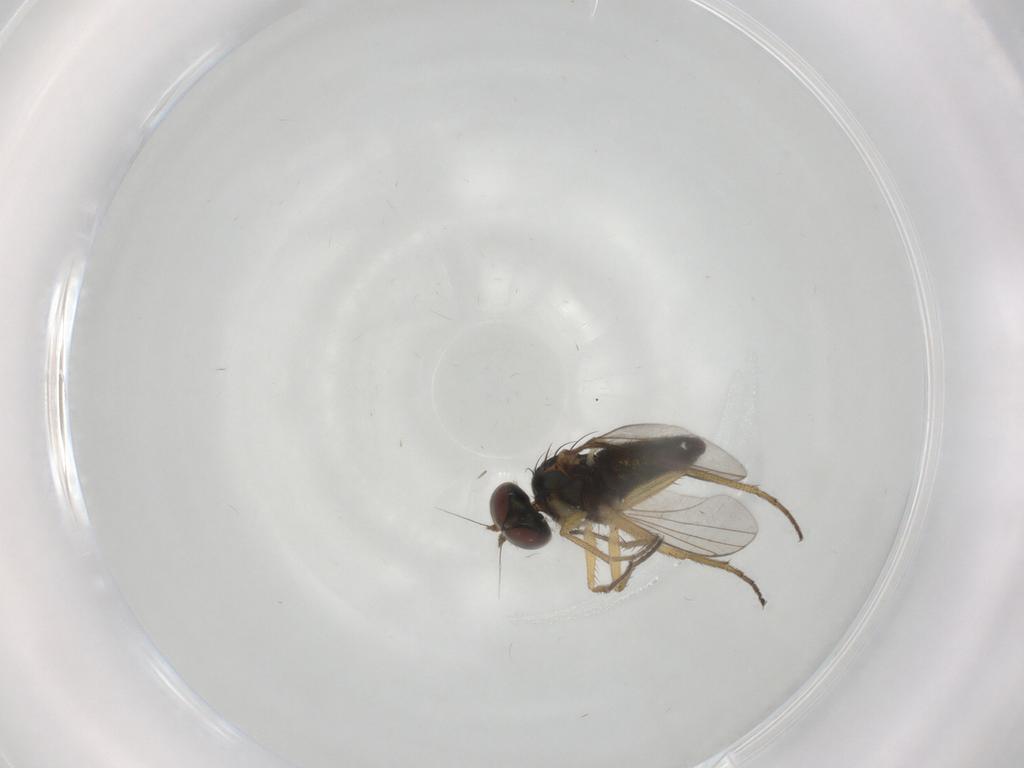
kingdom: Animalia
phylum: Arthropoda
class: Insecta
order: Diptera
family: Dolichopodidae
